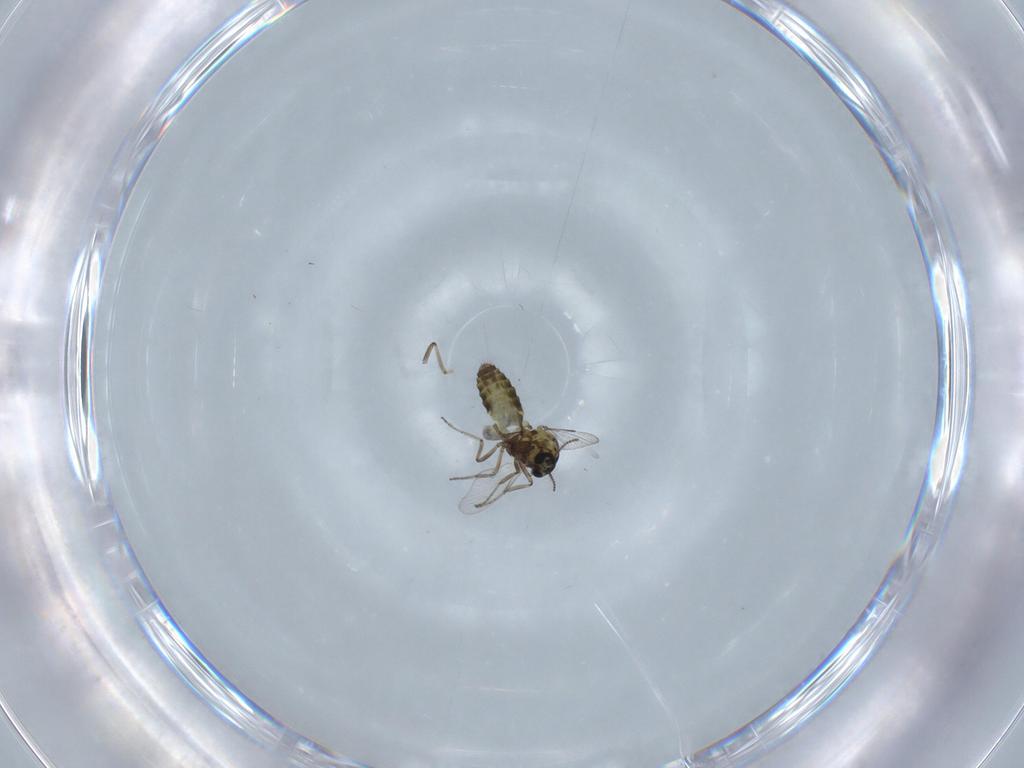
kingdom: Animalia
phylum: Arthropoda
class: Insecta
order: Diptera
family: Ceratopogonidae
